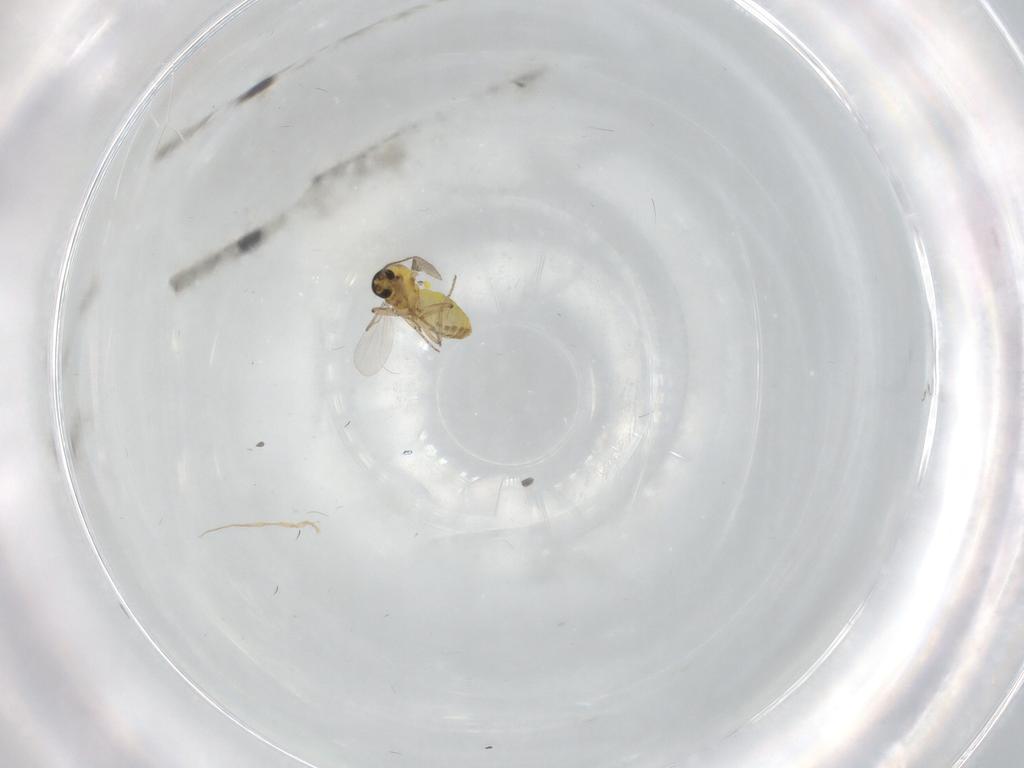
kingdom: Animalia
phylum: Arthropoda
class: Insecta
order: Diptera
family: Ceratopogonidae
